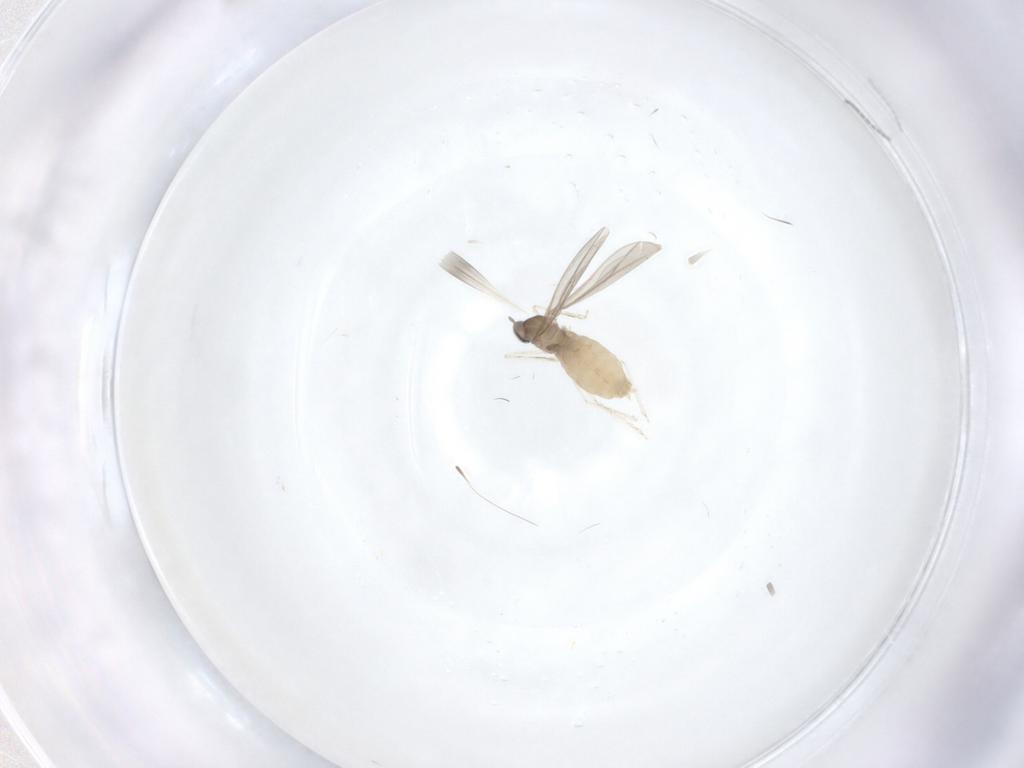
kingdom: Animalia
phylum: Arthropoda
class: Insecta
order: Diptera
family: Sciaridae
